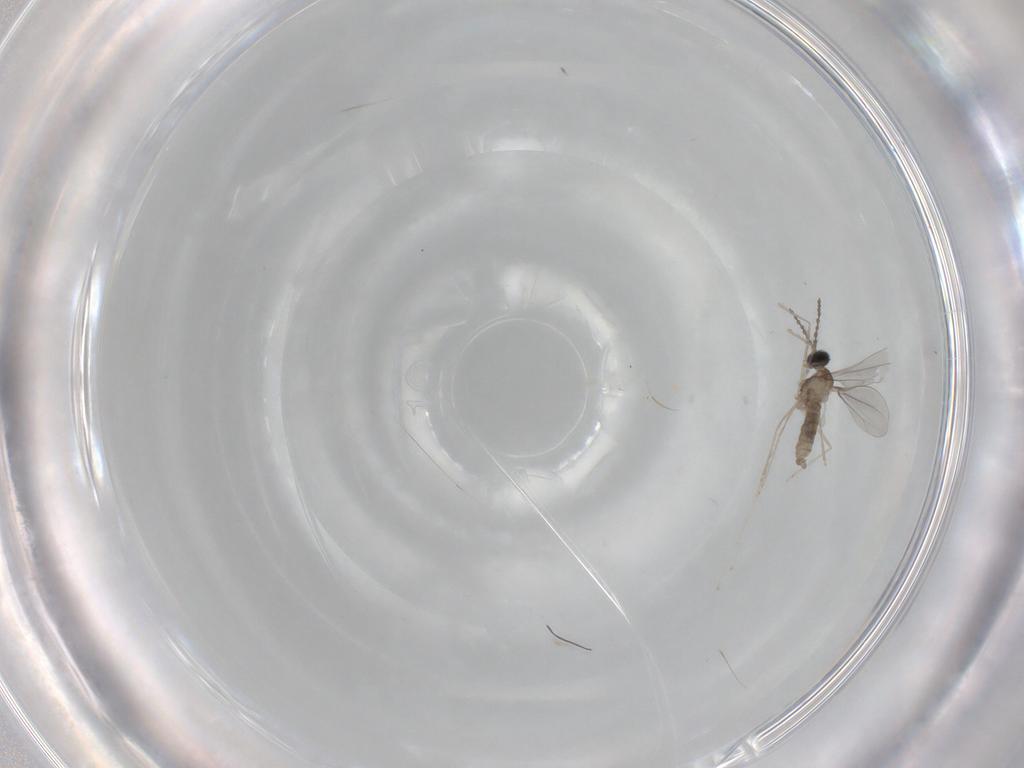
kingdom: Animalia
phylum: Arthropoda
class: Insecta
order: Diptera
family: Cecidomyiidae
